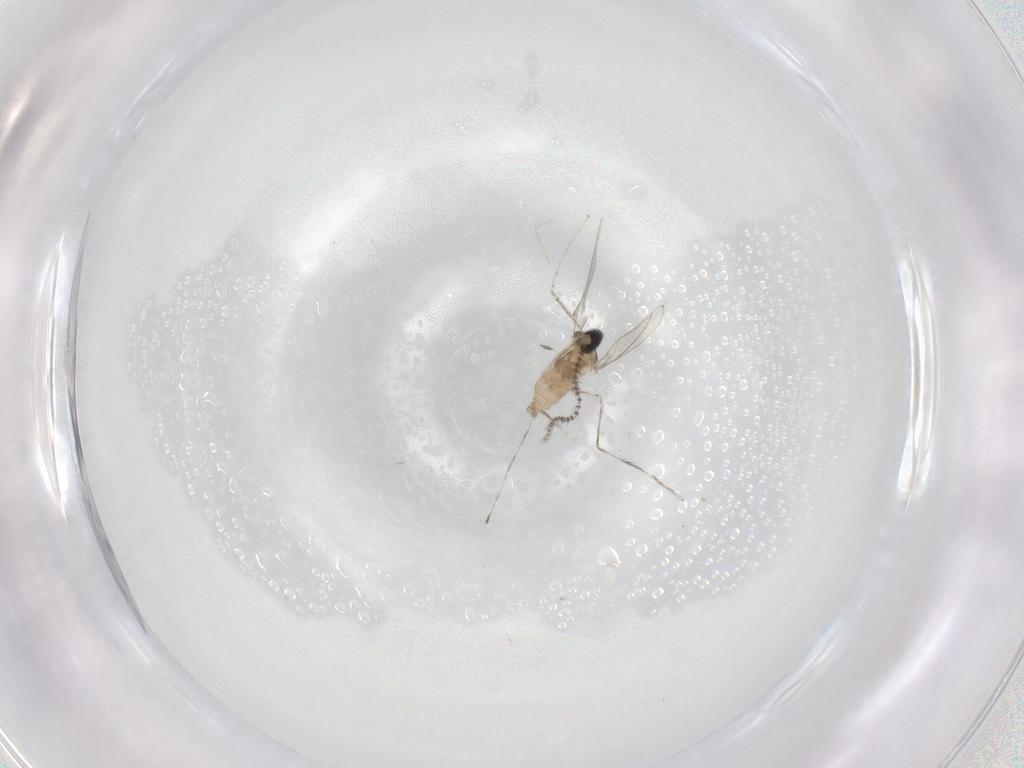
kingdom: Animalia
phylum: Arthropoda
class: Insecta
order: Diptera
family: Cecidomyiidae
